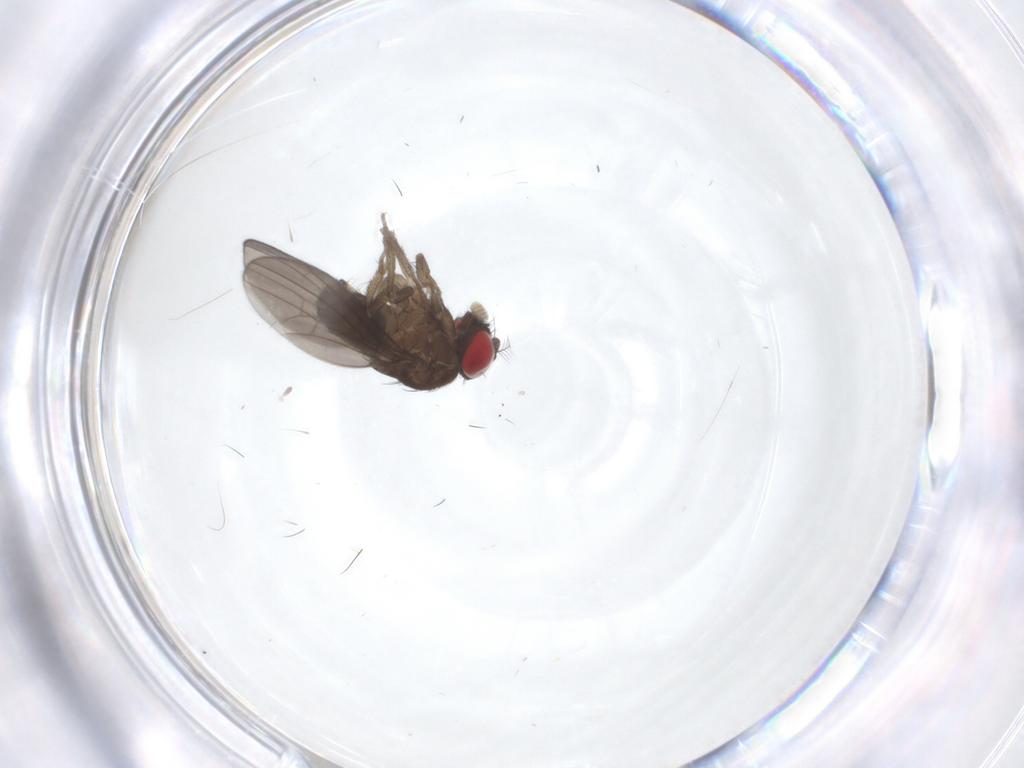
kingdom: Animalia
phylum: Arthropoda
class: Insecta
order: Diptera
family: Drosophilidae
